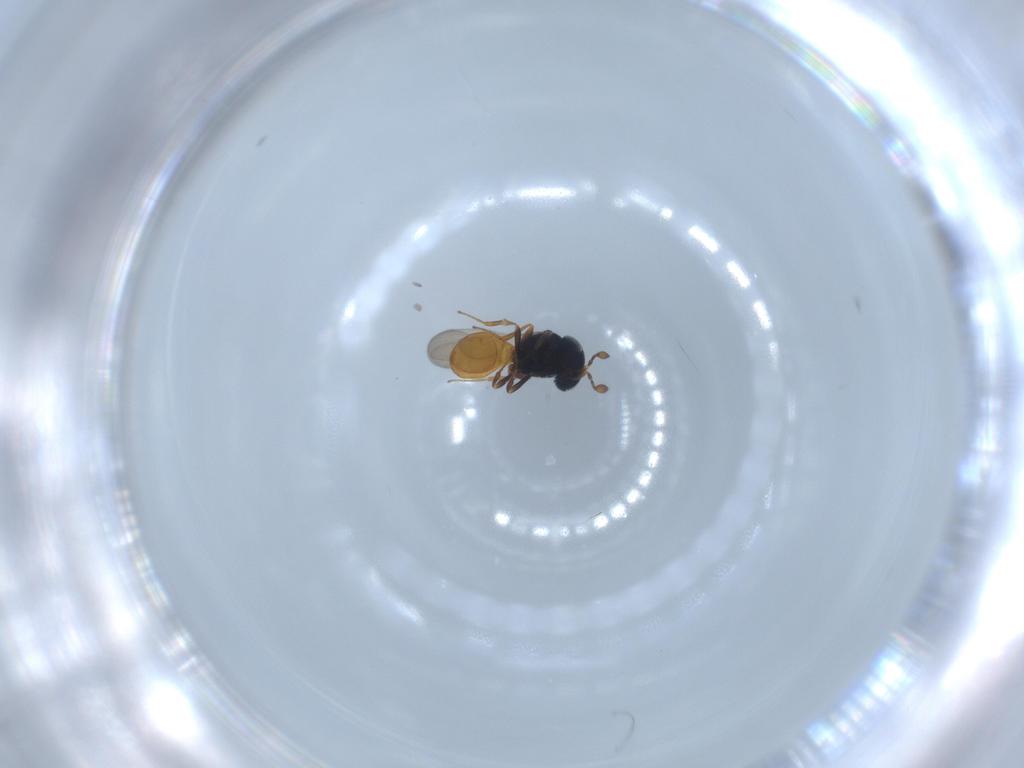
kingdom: Animalia
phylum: Arthropoda
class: Insecta
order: Hymenoptera
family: Scelionidae
